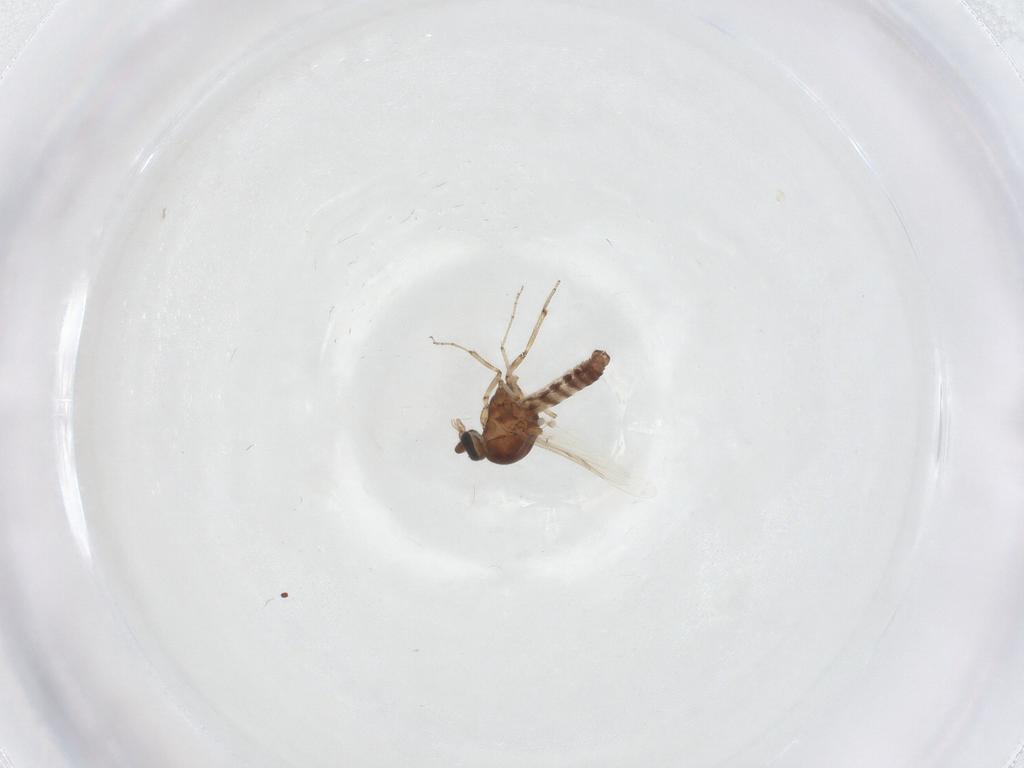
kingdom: Animalia
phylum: Arthropoda
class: Insecta
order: Diptera
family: Ceratopogonidae
